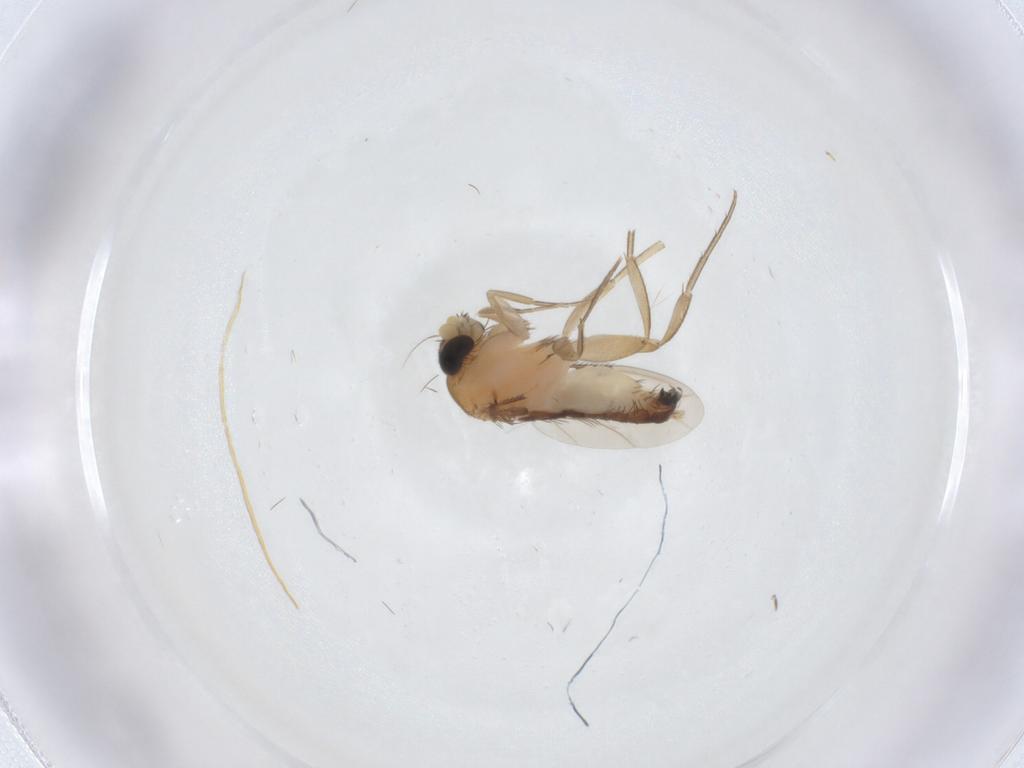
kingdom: Animalia
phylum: Arthropoda
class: Insecta
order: Diptera
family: Phoridae
